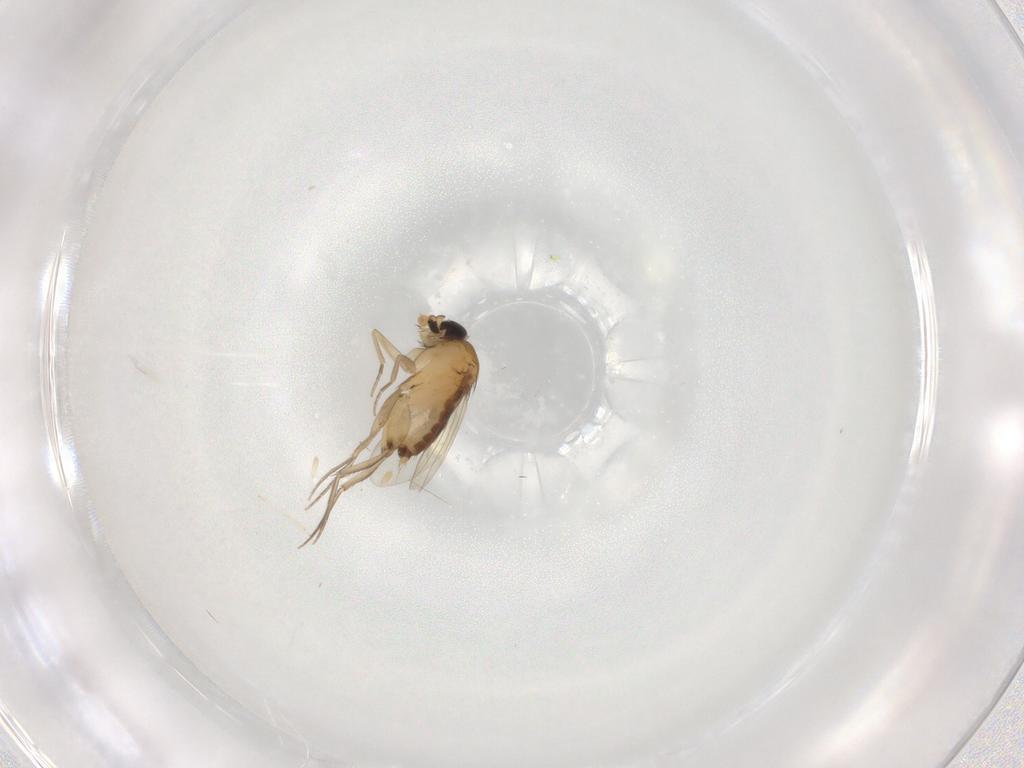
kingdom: Animalia
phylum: Arthropoda
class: Insecta
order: Diptera
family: Phoridae
